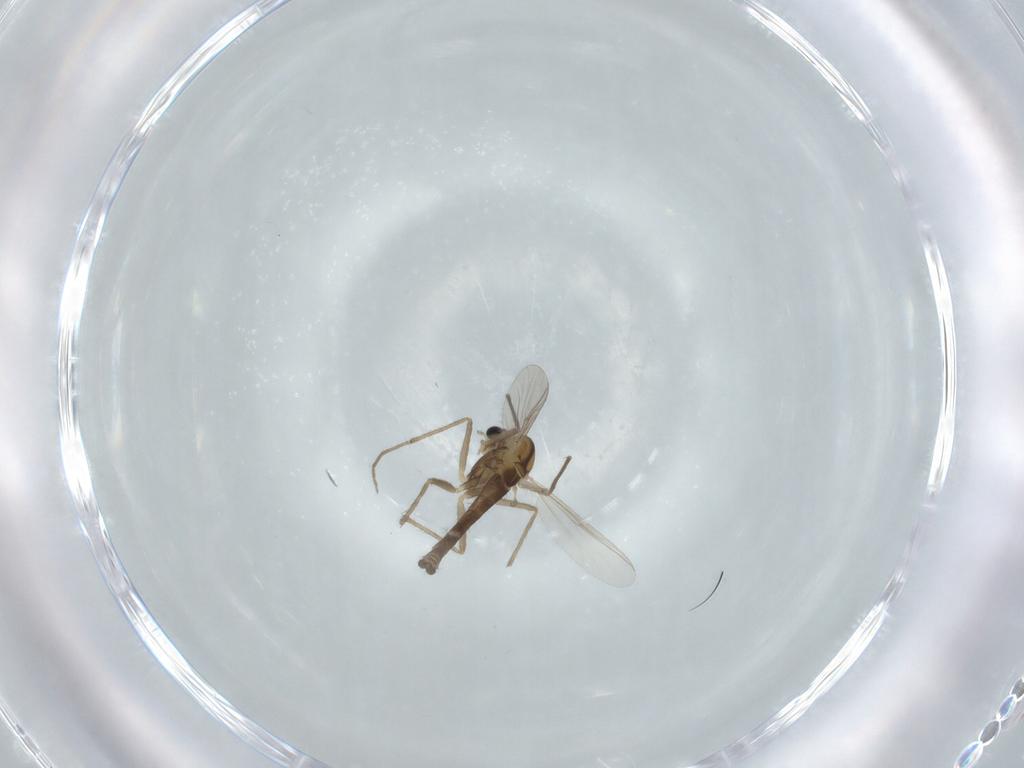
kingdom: Animalia
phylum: Arthropoda
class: Insecta
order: Diptera
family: Chironomidae
